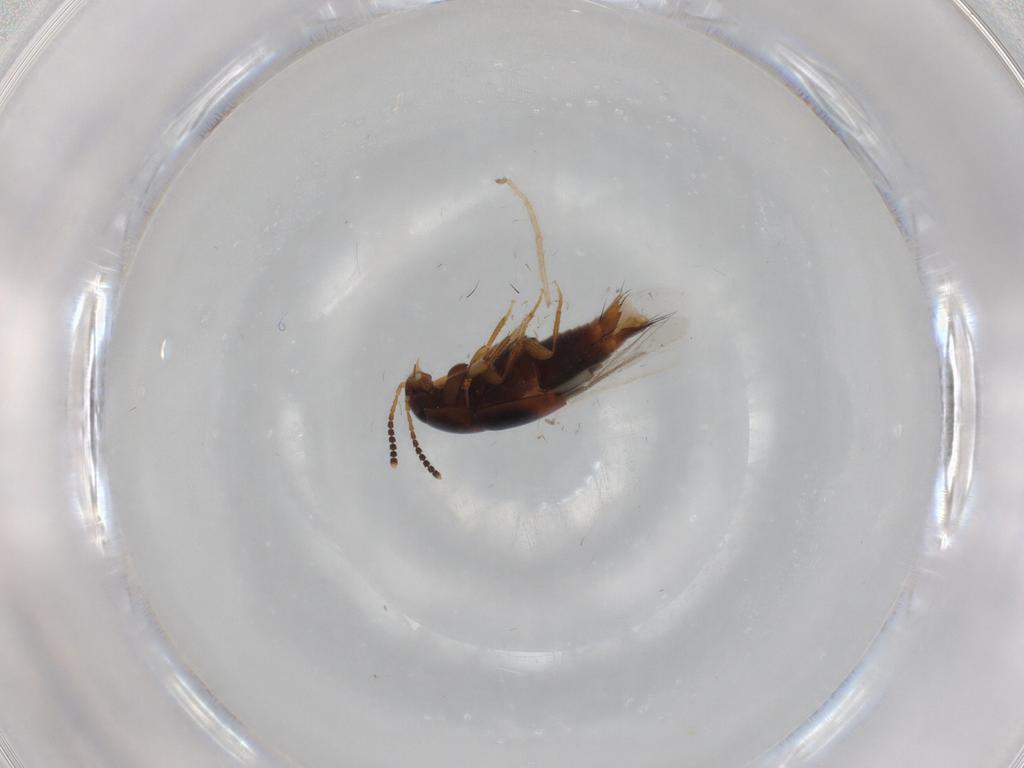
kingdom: Animalia
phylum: Arthropoda
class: Insecta
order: Coleoptera
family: Staphylinidae
